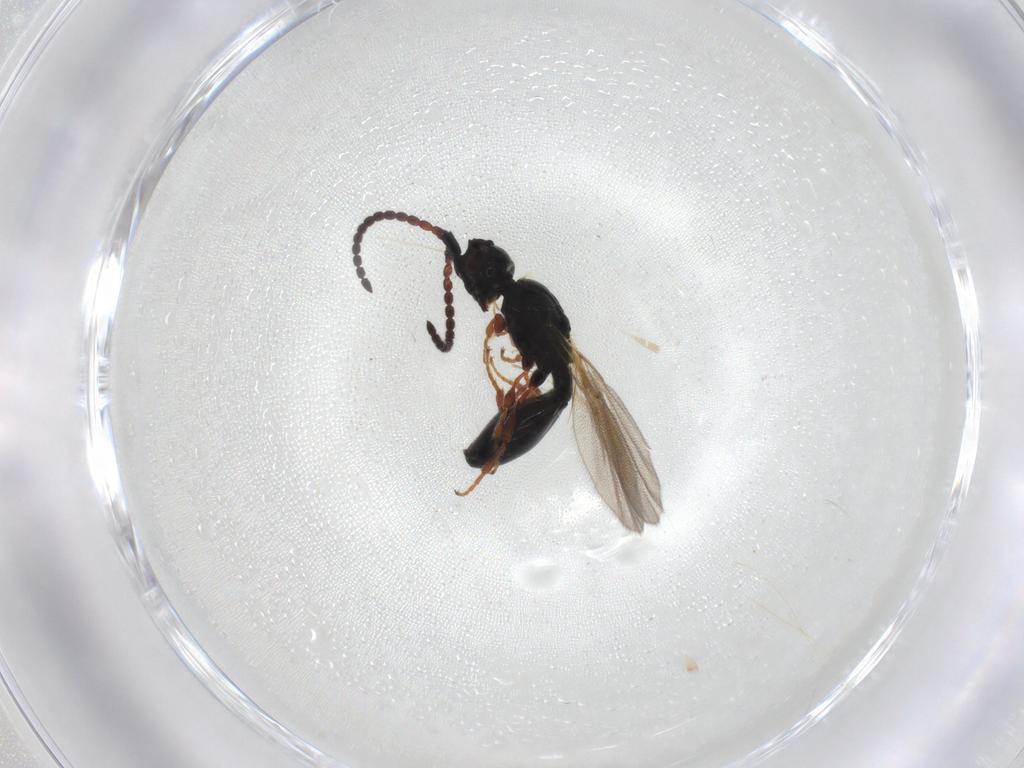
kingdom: Animalia
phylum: Arthropoda
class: Insecta
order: Hymenoptera
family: Diapriidae
